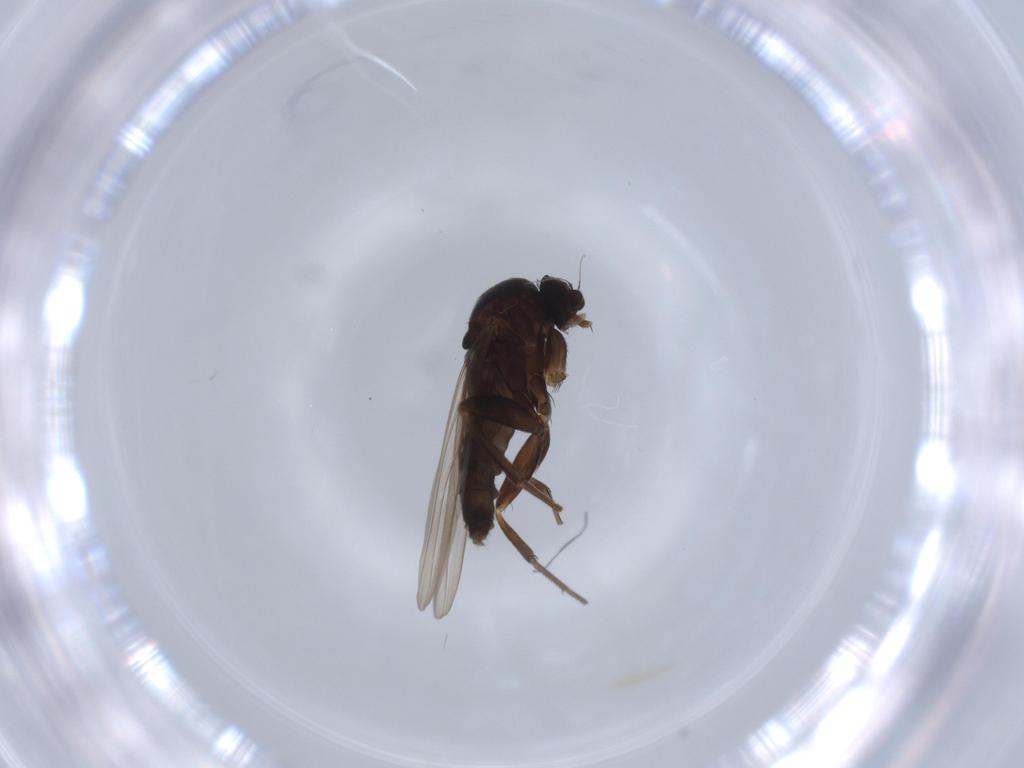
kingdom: Animalia
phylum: Arthropoda
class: Insecta
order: Diptera
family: Phoridae
